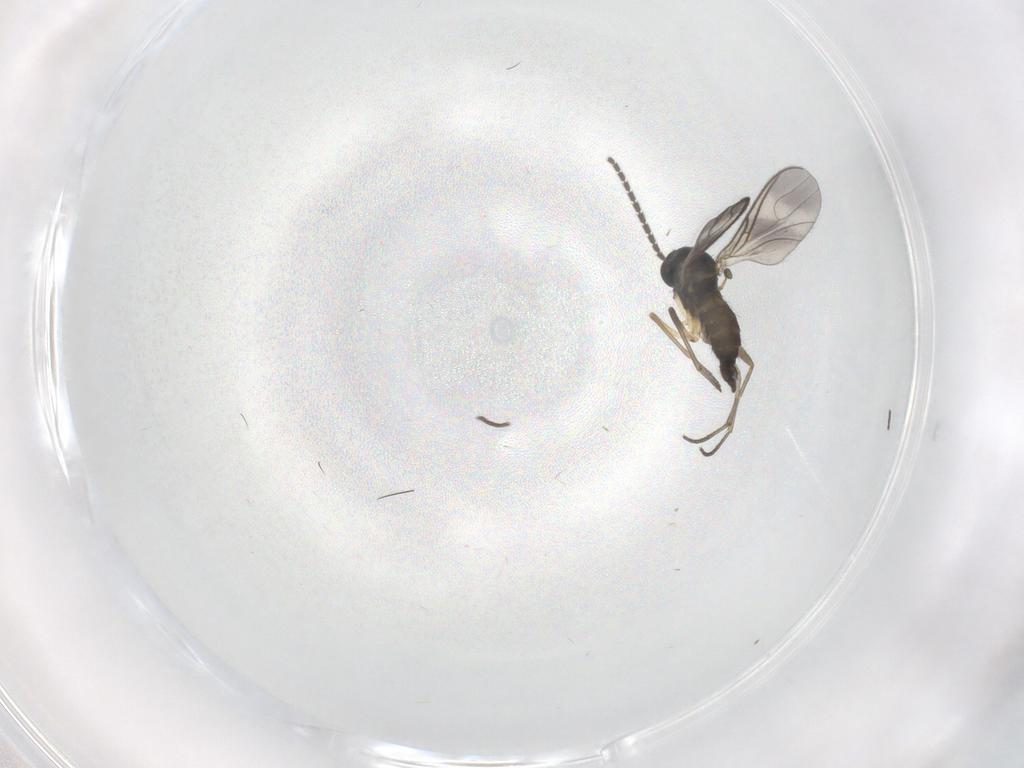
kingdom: Animalia
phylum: Arthropoda
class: Insecta
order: Diptera
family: Sciaridae
